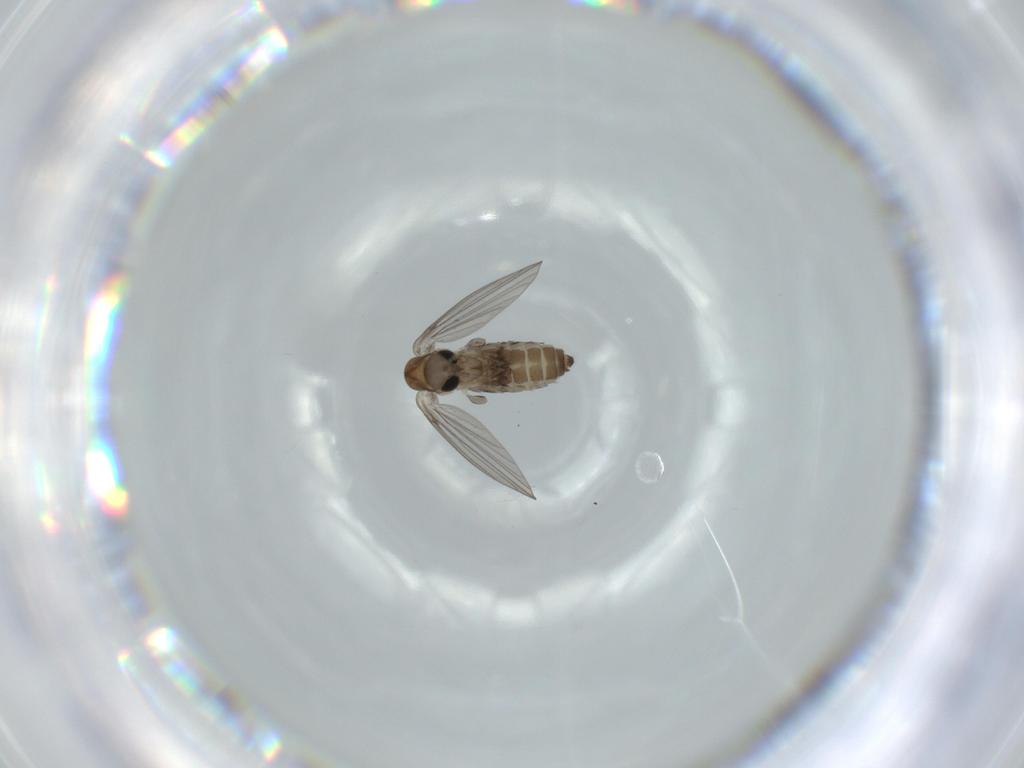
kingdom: Animalia
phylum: Arthropoda
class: Insecta
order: Diptera
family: Psychodidae
